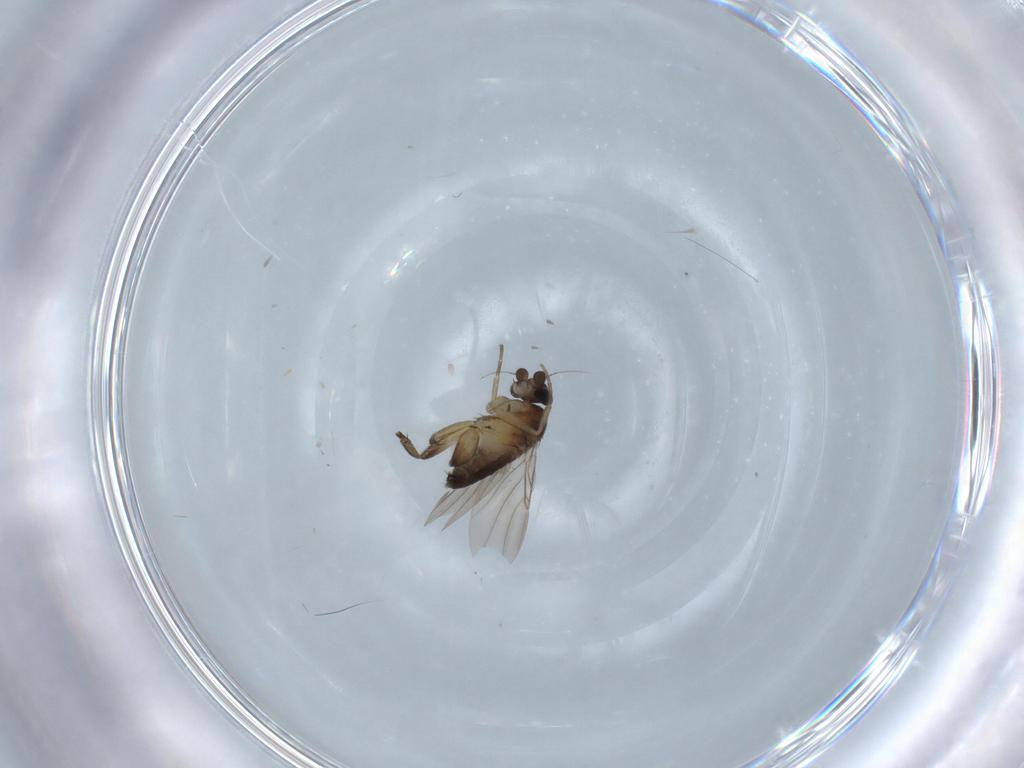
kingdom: Animalia
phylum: Arthropoda
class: Insecta
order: Diptera
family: Phoridae
